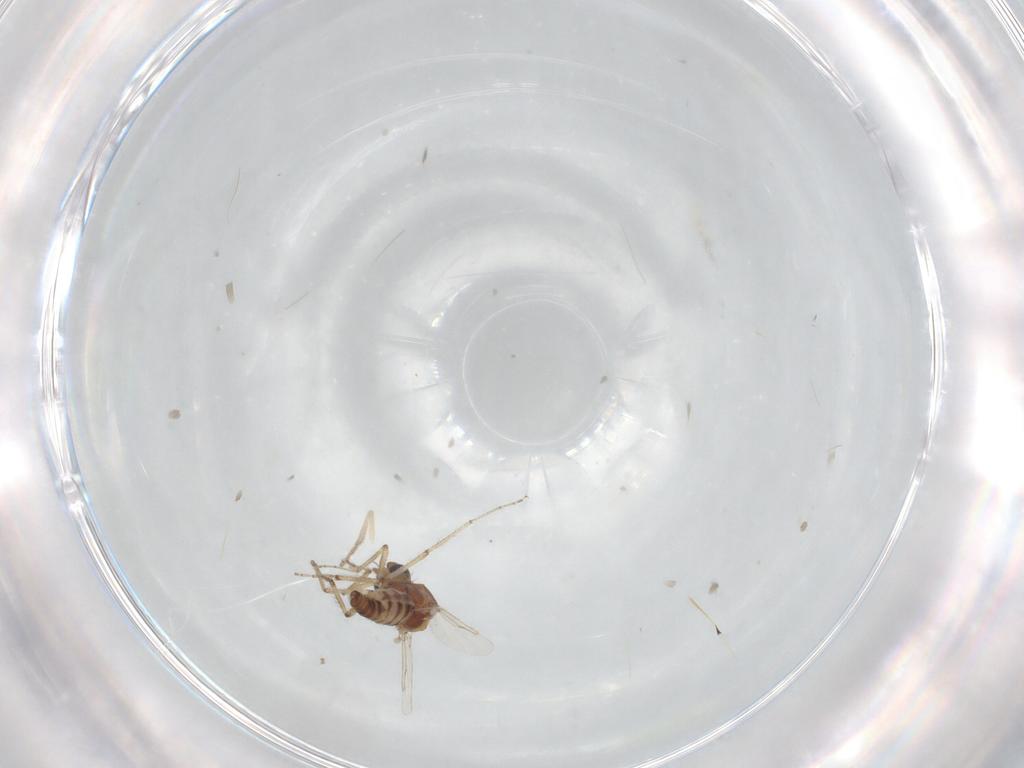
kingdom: Animalia
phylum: Arthropoda
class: Insecta
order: Diptera
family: Ceratopogonidae
